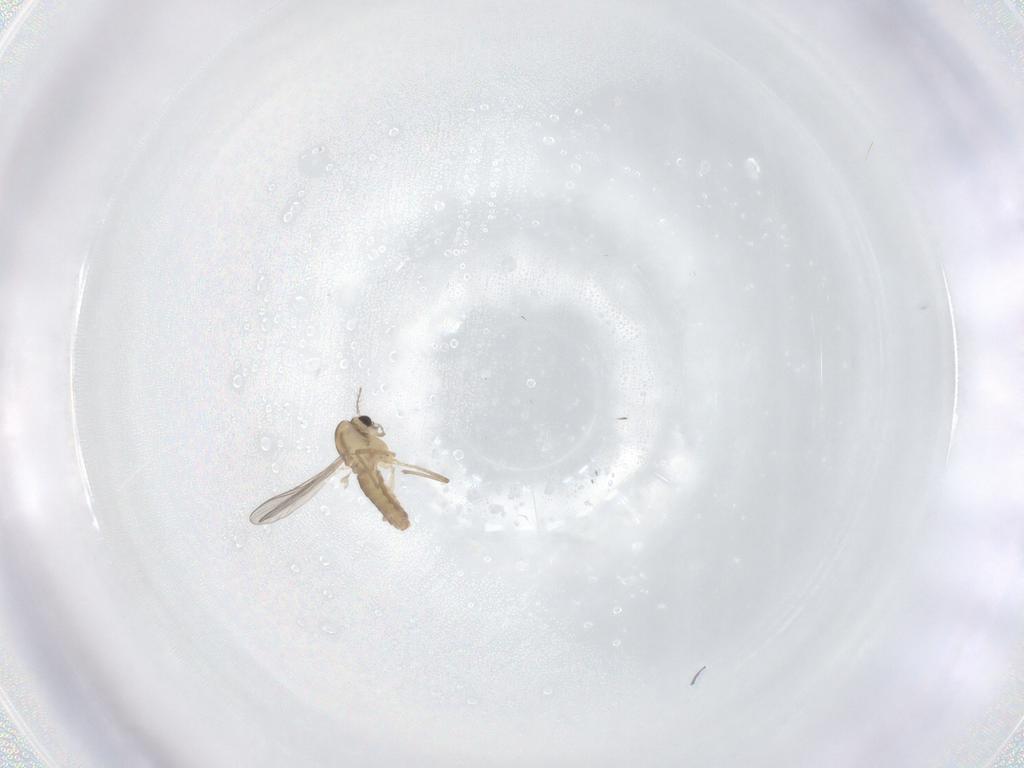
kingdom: Animalia
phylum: Arthropoda
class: Insecta
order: Diptera
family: Chironomidae
